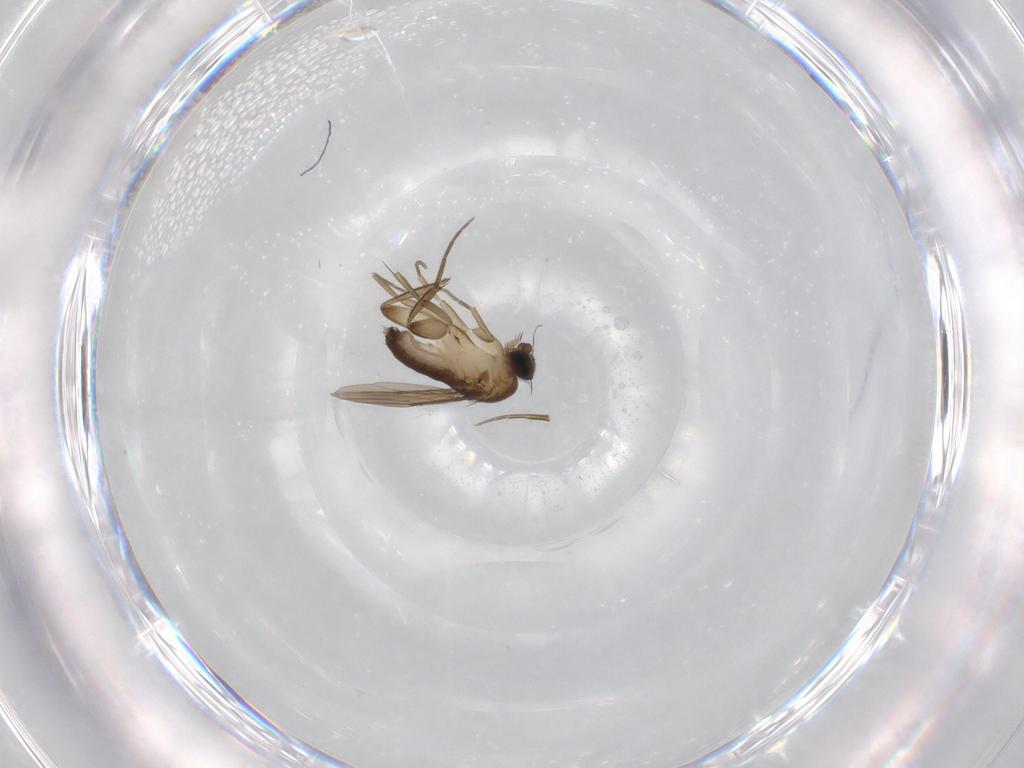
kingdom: Animalia
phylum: Arthropoda
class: Insecta
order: Diptera
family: Phoridae
